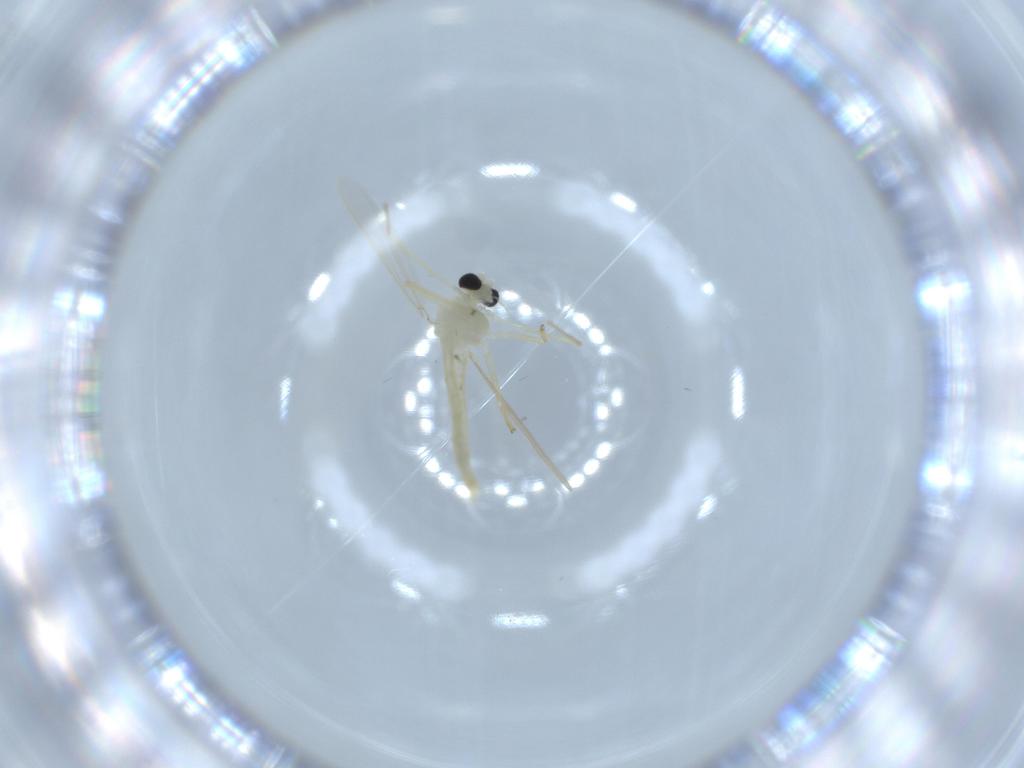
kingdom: Animalia
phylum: Arthropoda
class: Insecta
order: Diptera
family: Chironomidae
